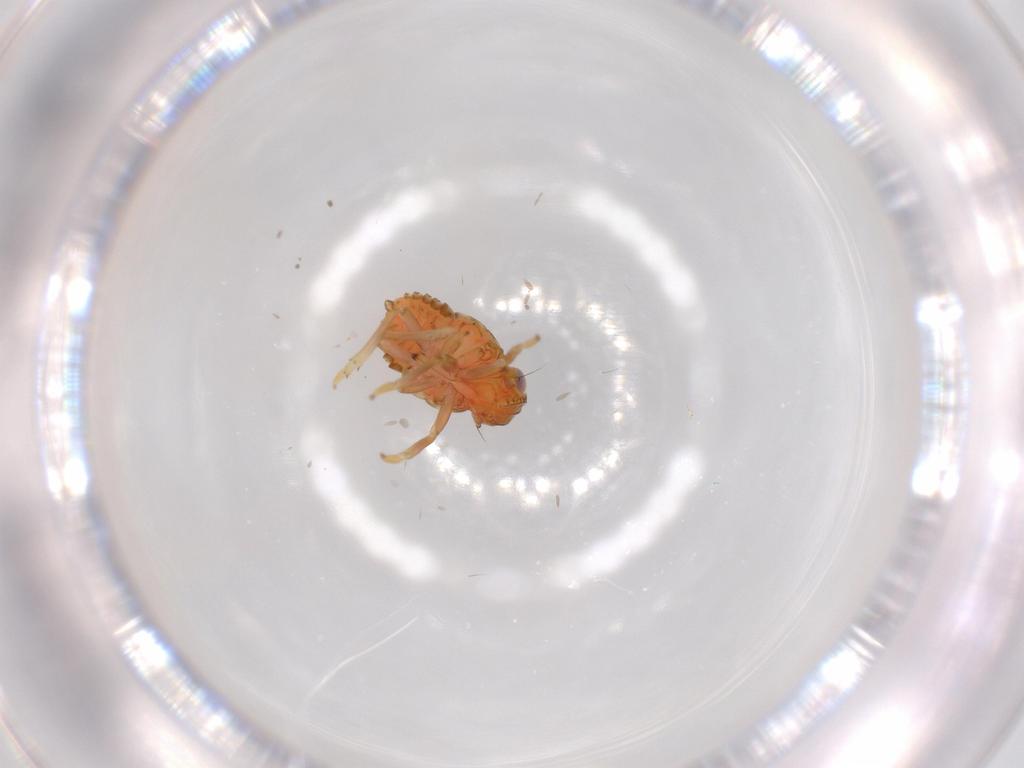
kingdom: Animalia
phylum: Arthropoda
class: Insecta
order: Hemiptera
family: Issidae
